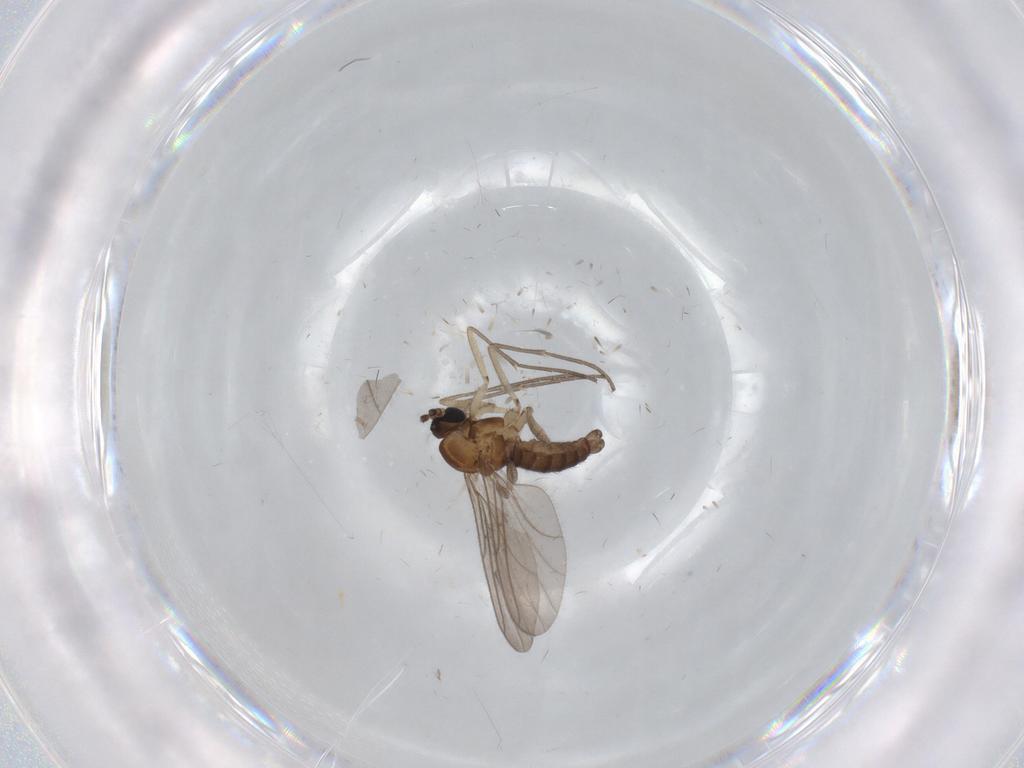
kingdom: Animalia
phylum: Arthropoda
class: Insecta
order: Diptera
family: Sciaridae
